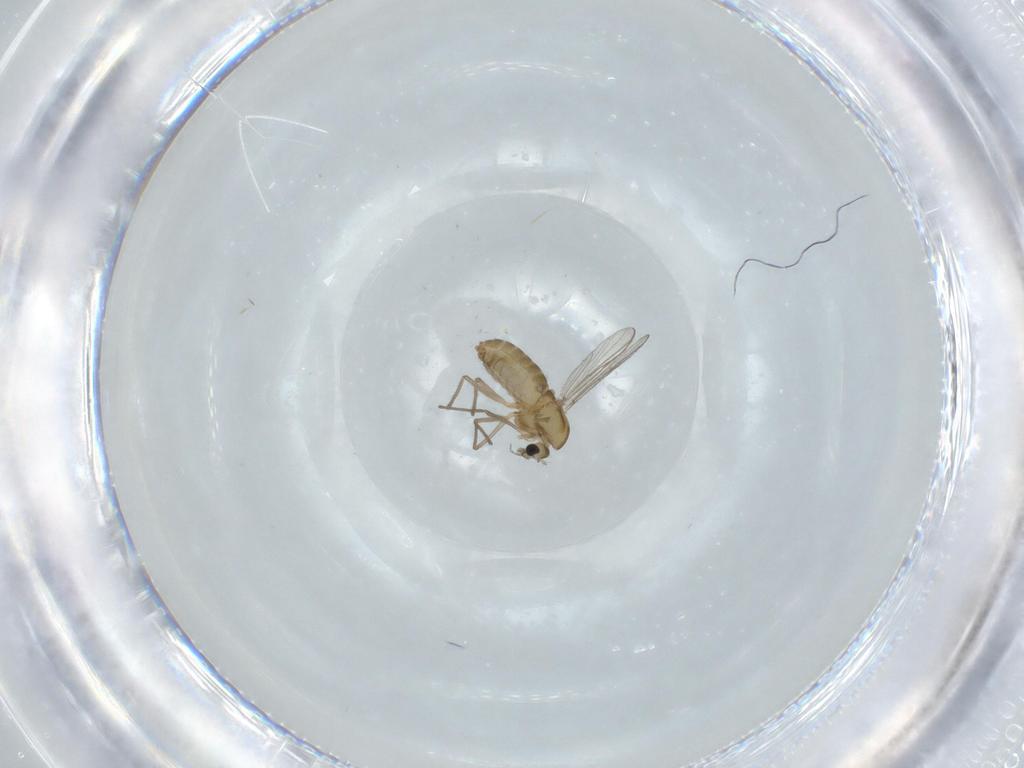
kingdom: Animalia
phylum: Arthropoda
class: Insecta
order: Diptera
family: Chironomidae
